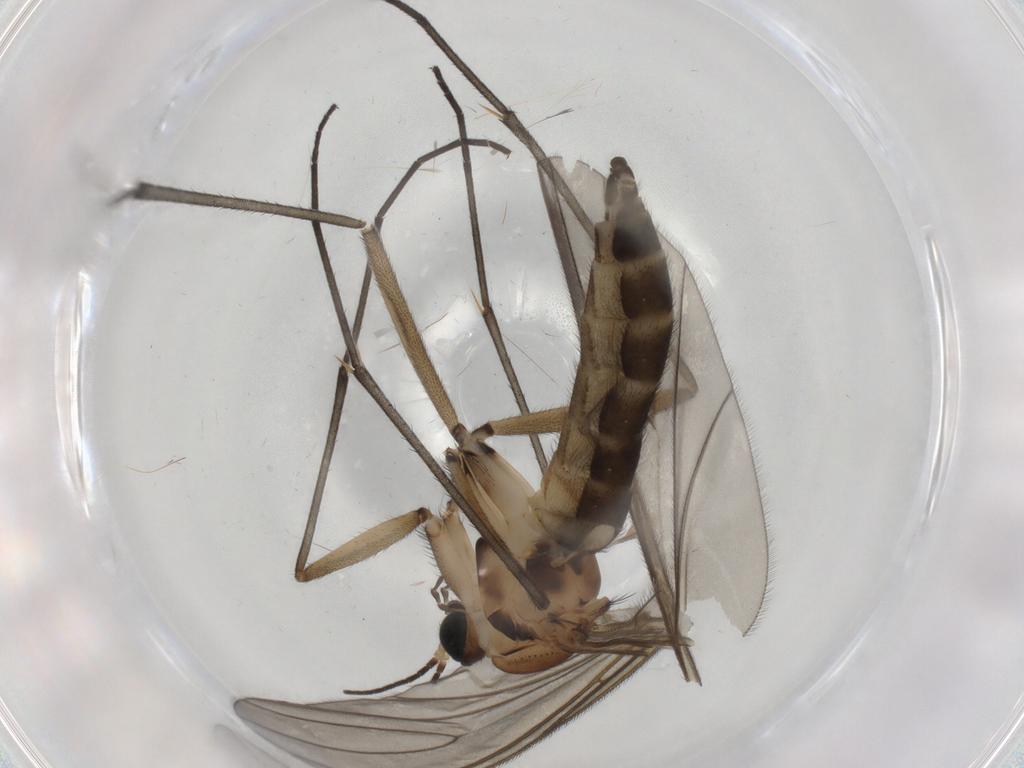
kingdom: Animalia
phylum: Arthropoda
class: Insecta
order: Diptera
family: Sciaridae
